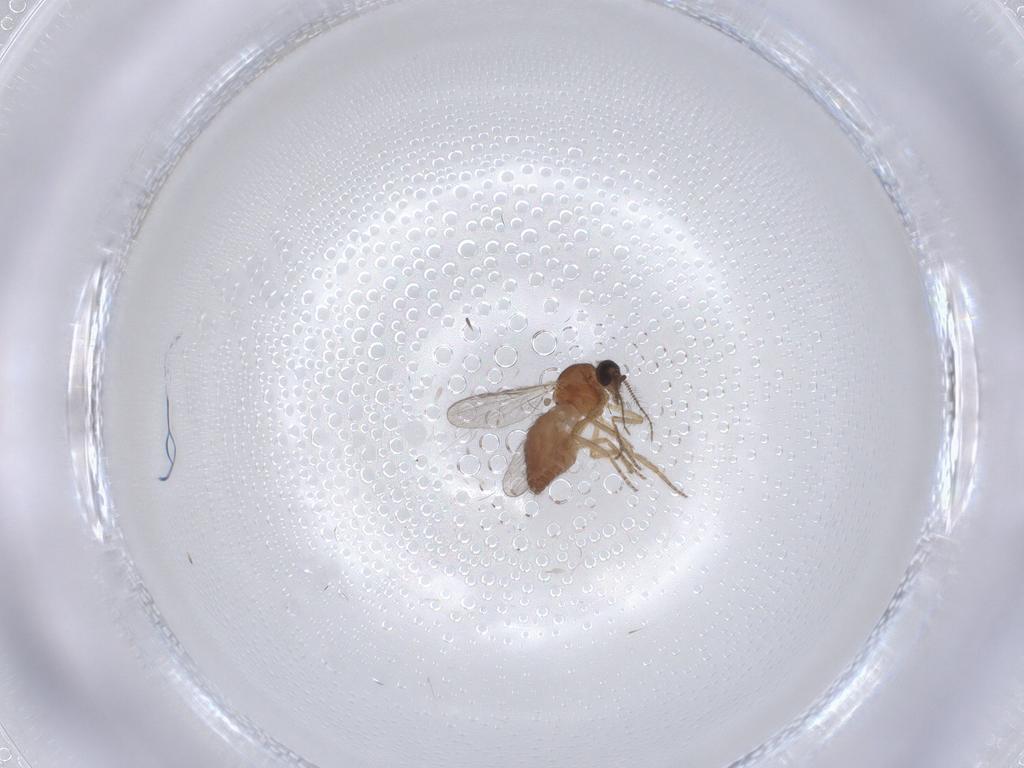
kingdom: Animalia
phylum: Arthropoda
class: Insecta
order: Diptera
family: Ceratopogonidae
